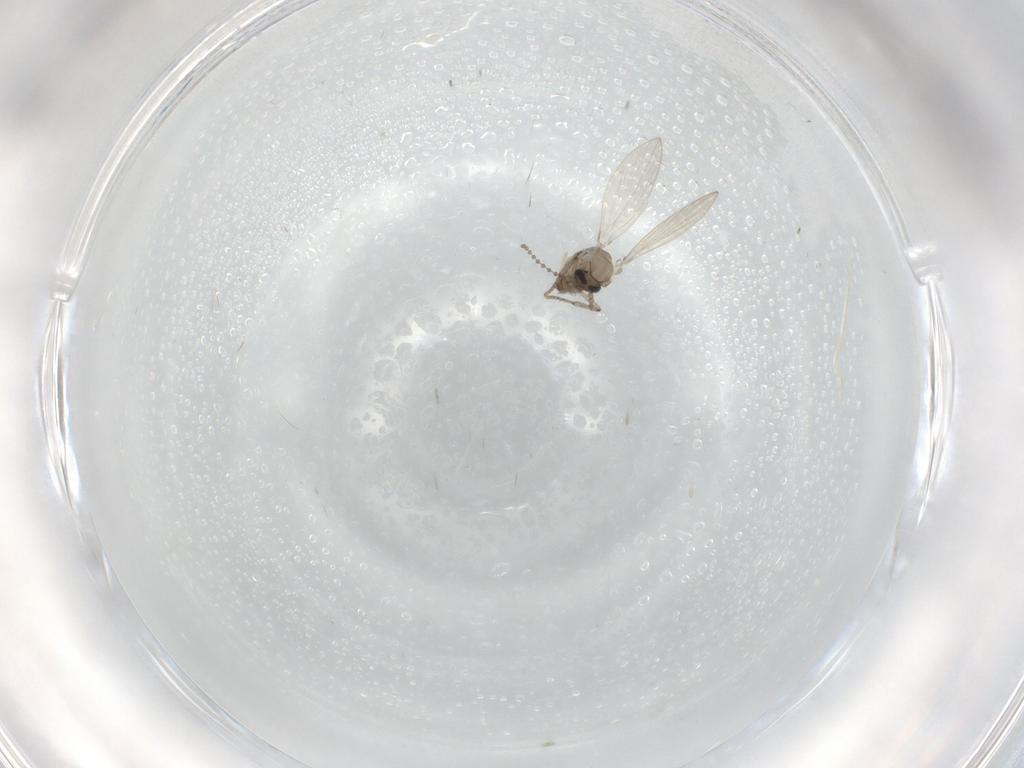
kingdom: Animalia
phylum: Arthropoda
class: Insecta
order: Diptera
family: Psychodidae
